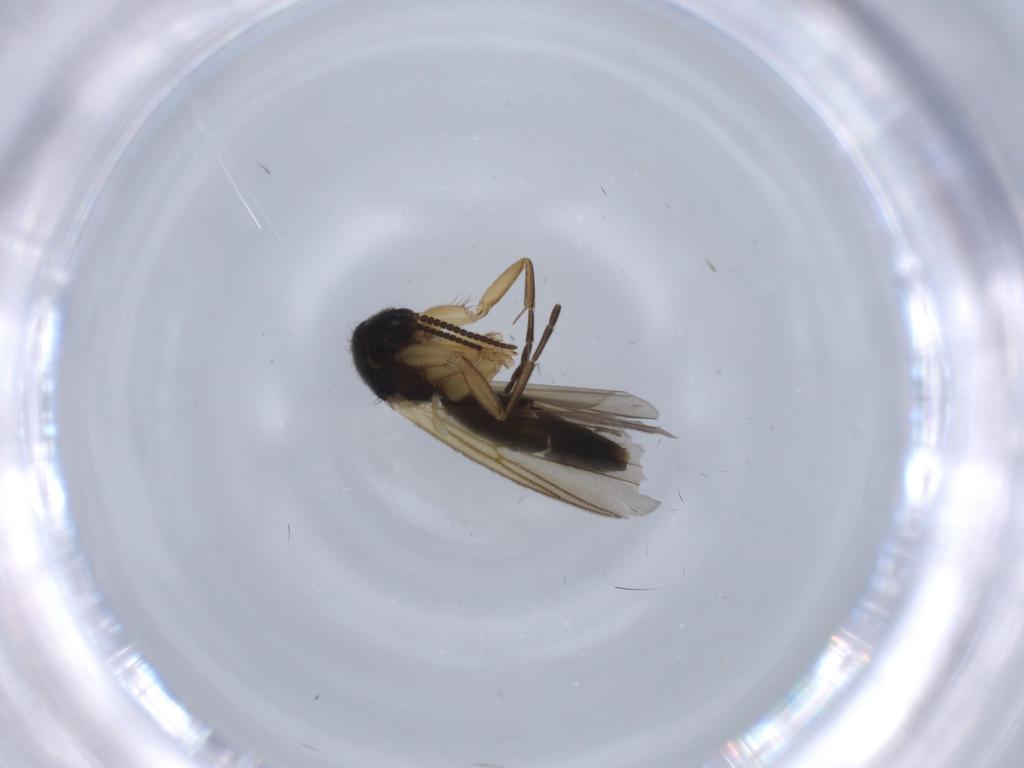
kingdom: Animalia
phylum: Arthropoda
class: Insecta
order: Diptera
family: Mycetophilidae
